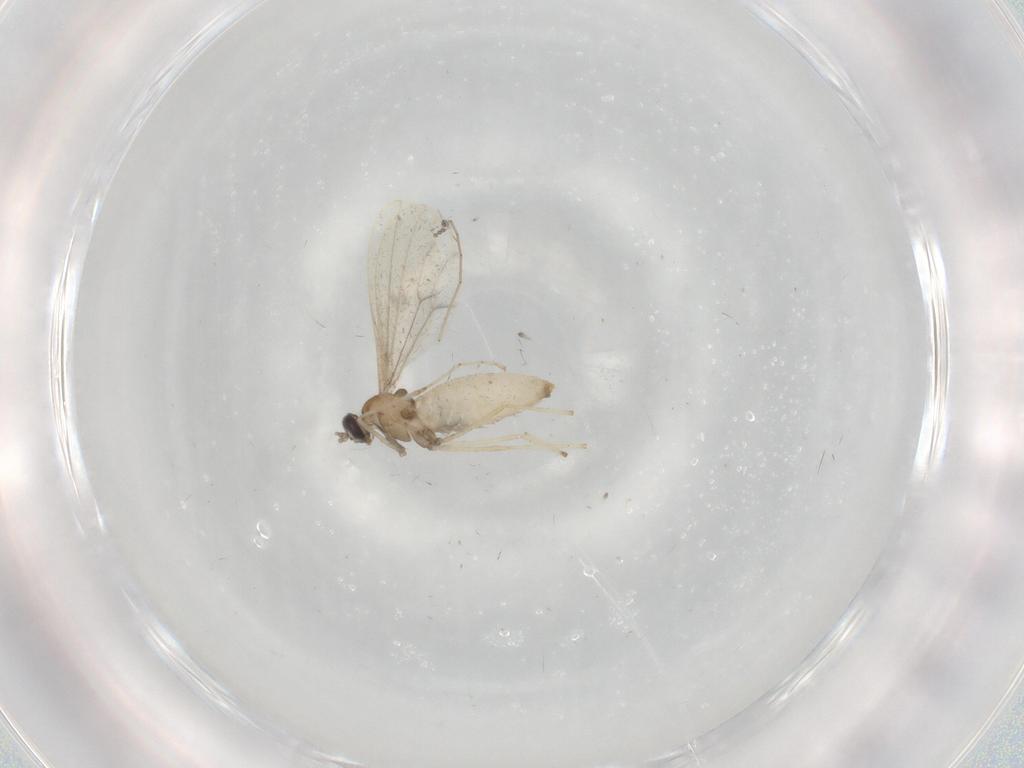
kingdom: Animalia
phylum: Arthropoda
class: Insecta
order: Diptera
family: Cecidomyiidae
